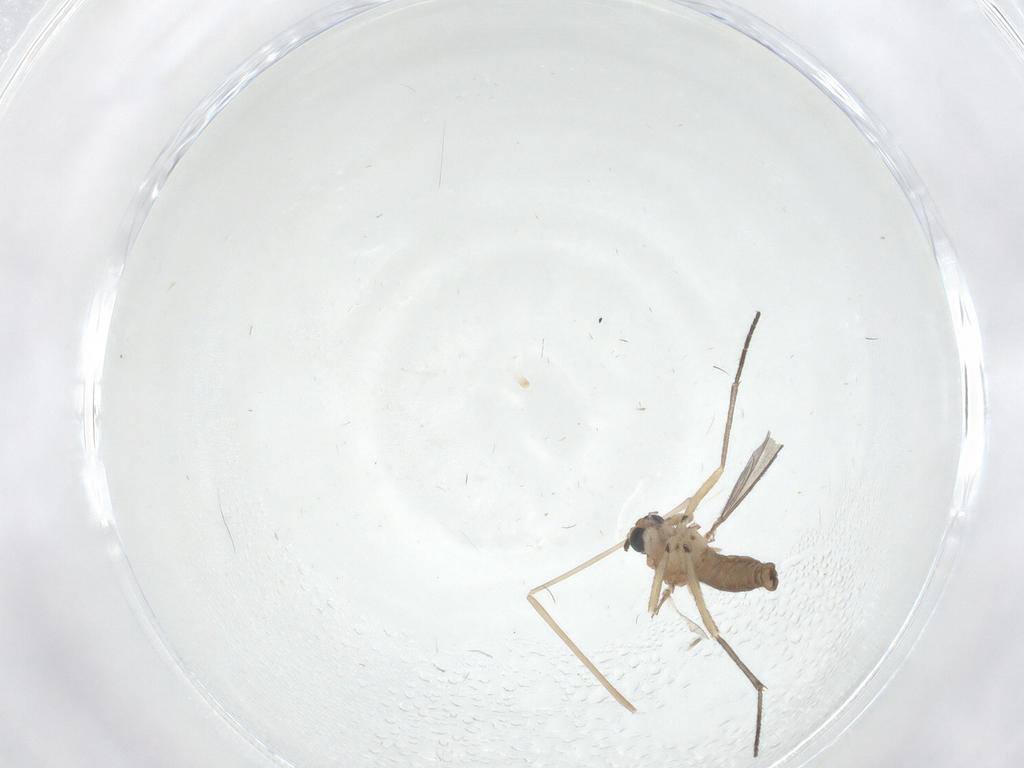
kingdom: Animalia
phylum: Arthropoda
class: Insecta
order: Diptera
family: Sciaridae
